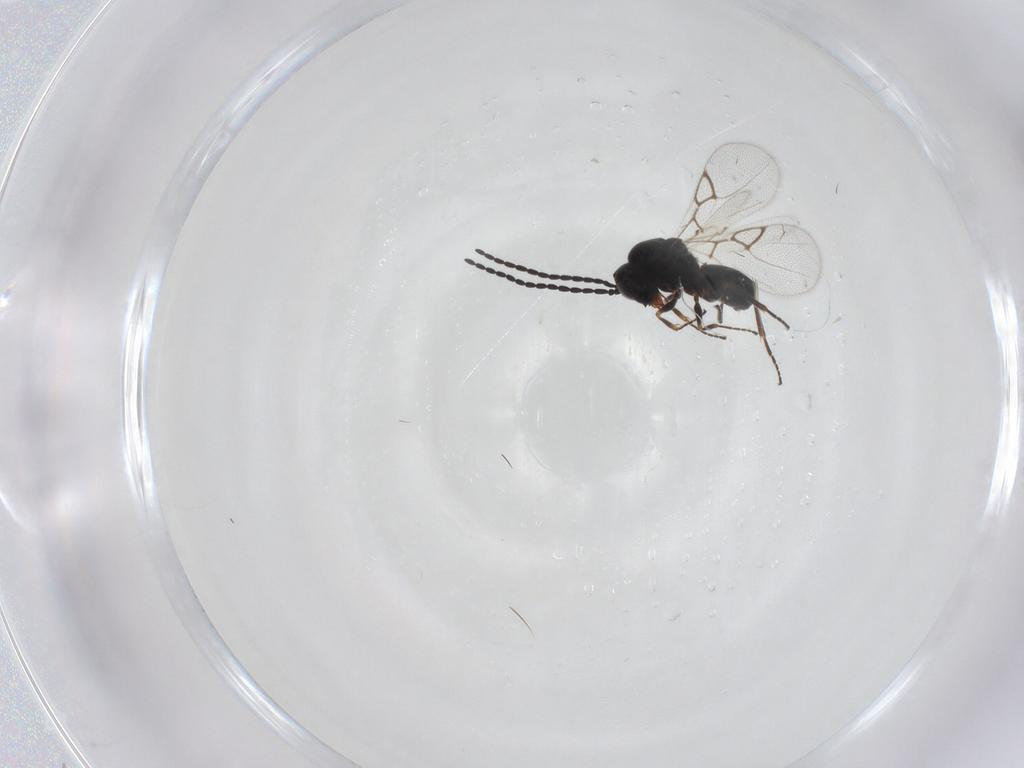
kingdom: Animalia
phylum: Arthropoda
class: Insecta
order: Hymenoptera
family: Figitidae
